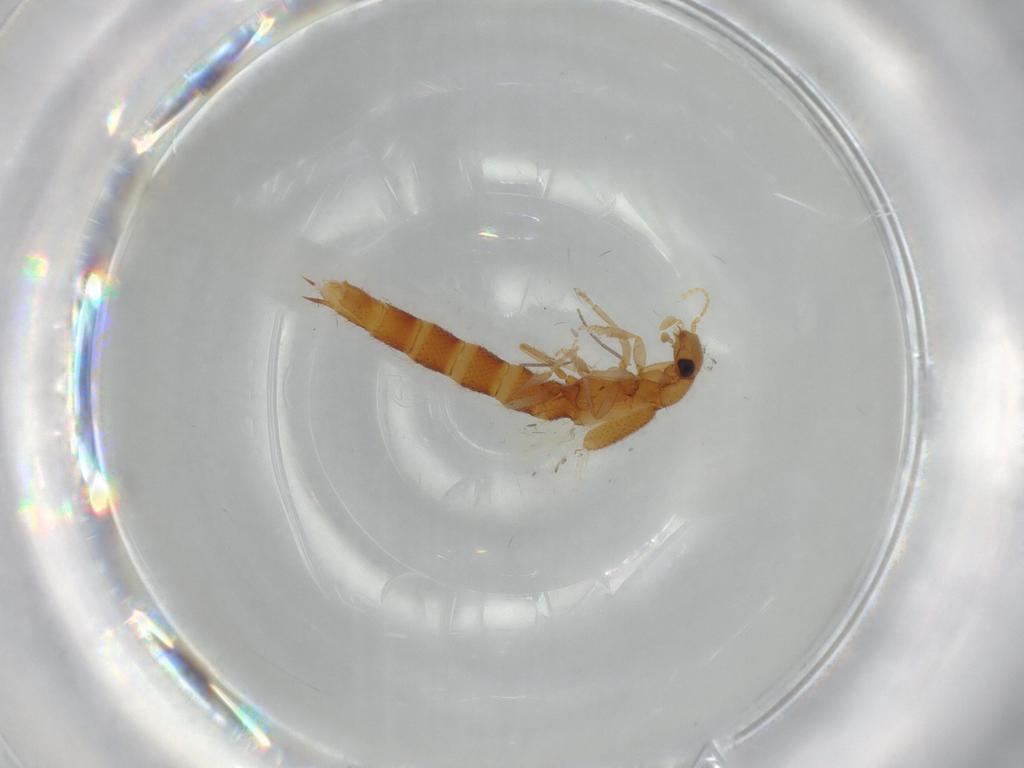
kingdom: Animalia
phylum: Arthropoda
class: Insecta
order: Coleoptera
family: Staphylinidae
